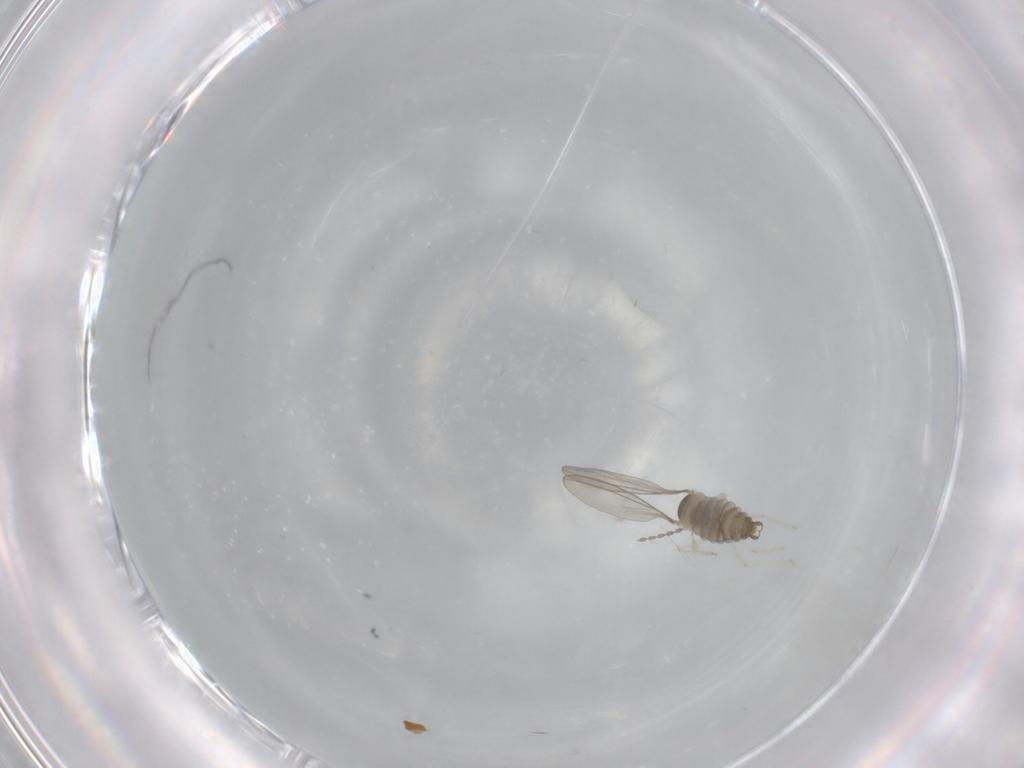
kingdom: Animalia
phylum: Arthropoda
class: Insecta
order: Diptera
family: Cecidomyiidae
